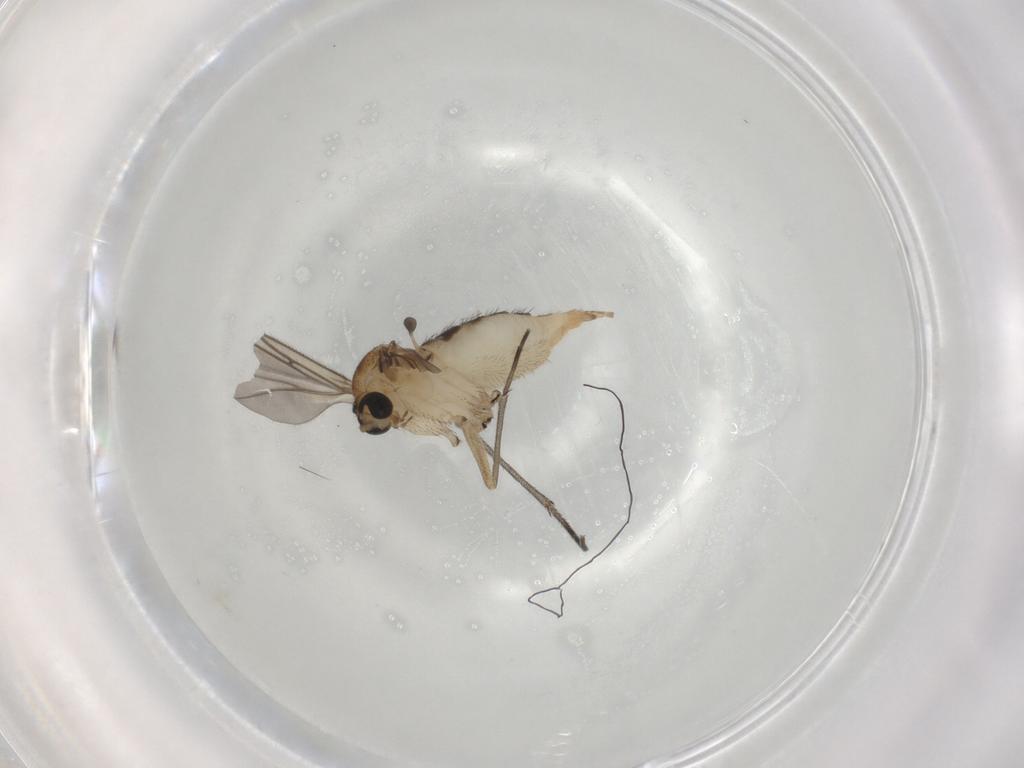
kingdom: Animalia
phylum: Arthropoda
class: Insecta
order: Diptera
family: Sciaridae
